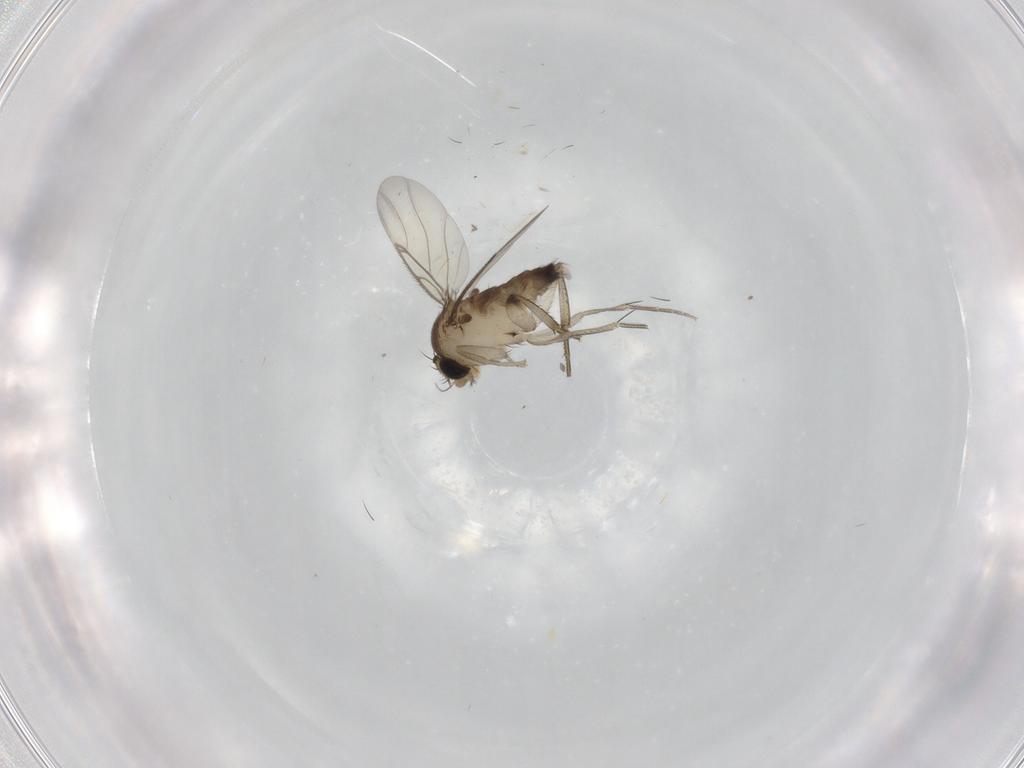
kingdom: Animalia
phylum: Arthropoda
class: Insecta
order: Diptera
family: Phoridae
